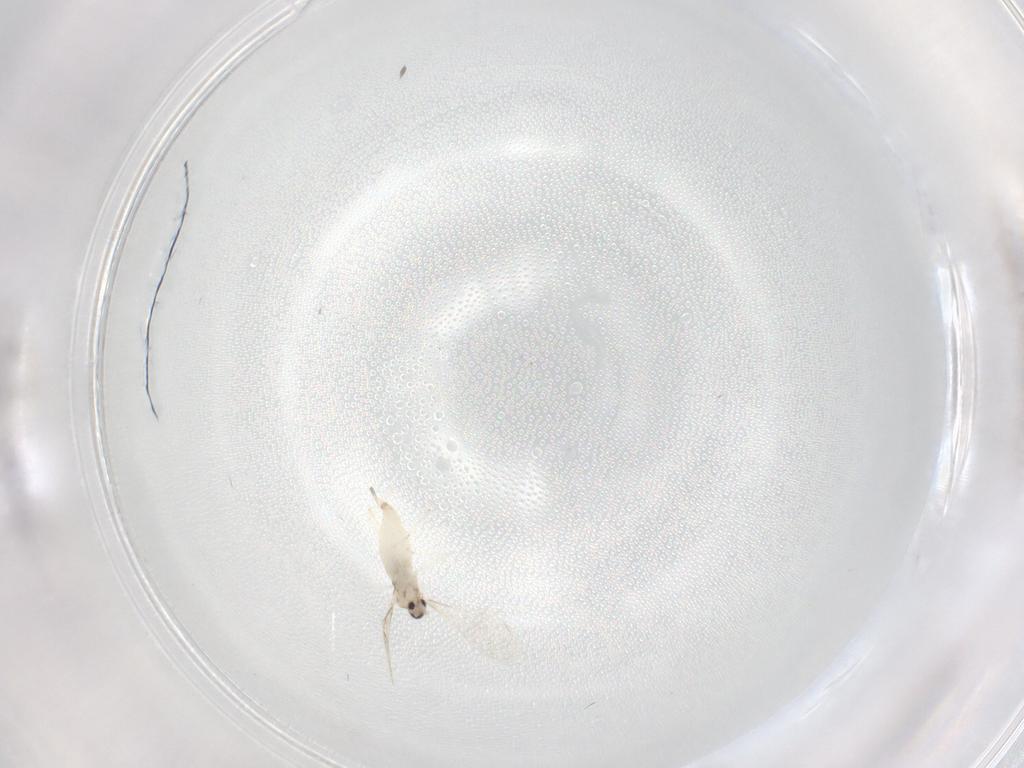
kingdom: Animalia
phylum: Arthropoda
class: Insecta
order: Diptera
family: Cecidomyiidae
